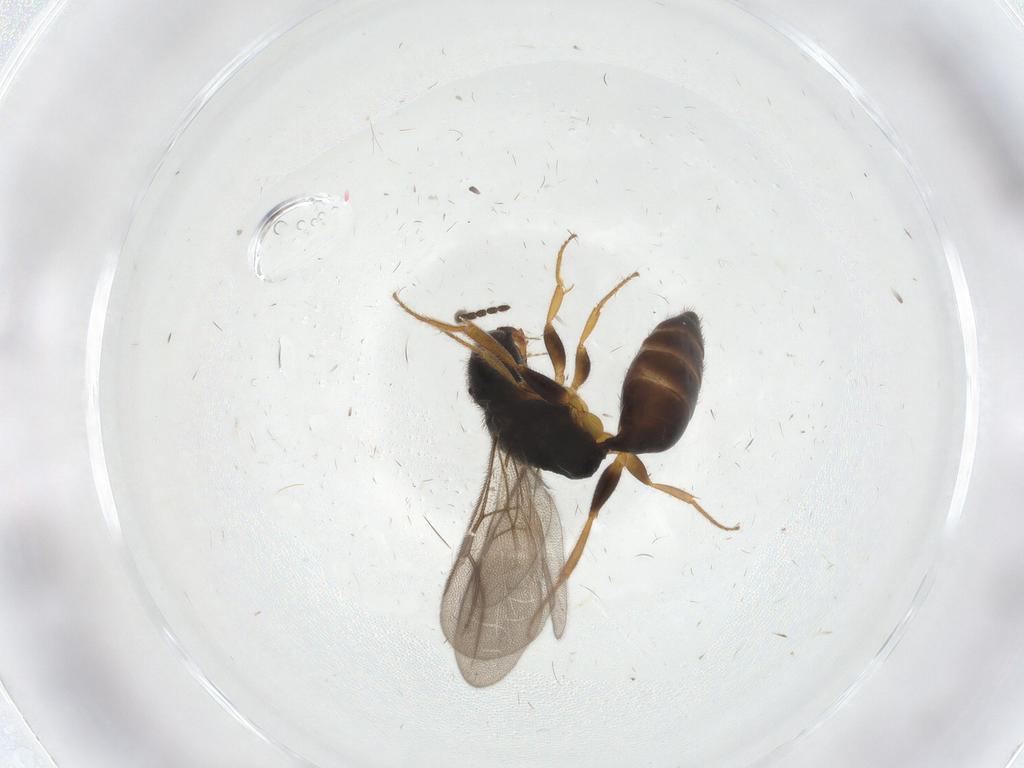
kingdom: Animalia
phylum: Arthropoda
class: Insecta
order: Hymenoptera
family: Bethylidae
